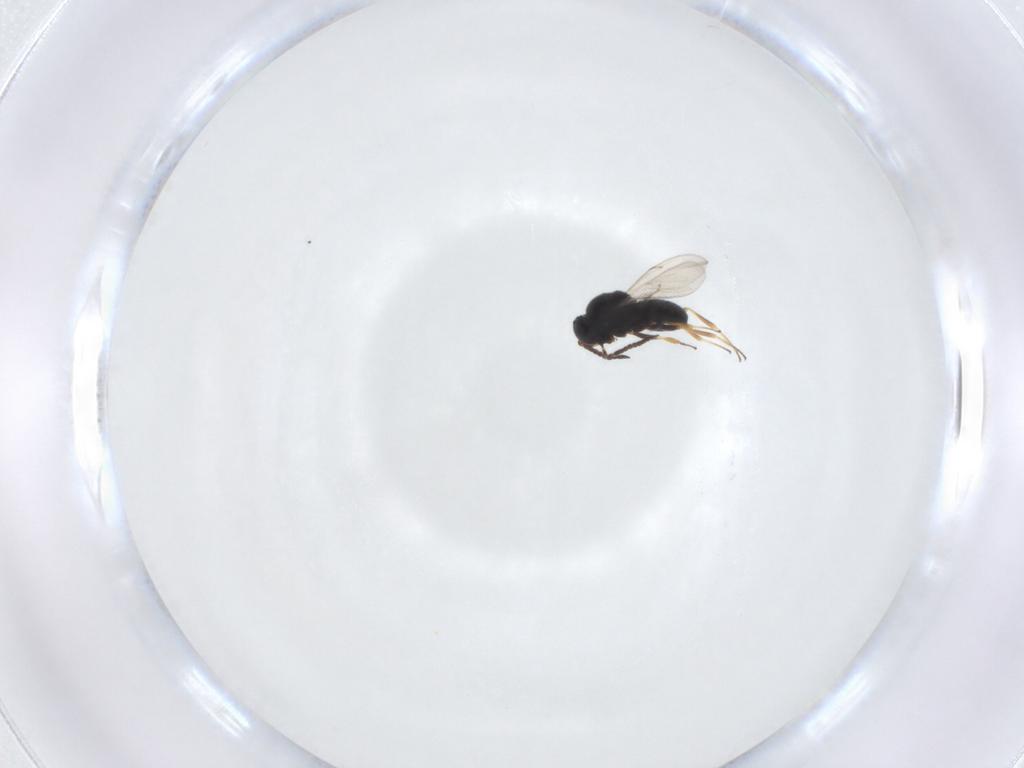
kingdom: Animalia
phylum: Arthropoda
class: Insecta
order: Hymenoptera
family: Scelionidae
